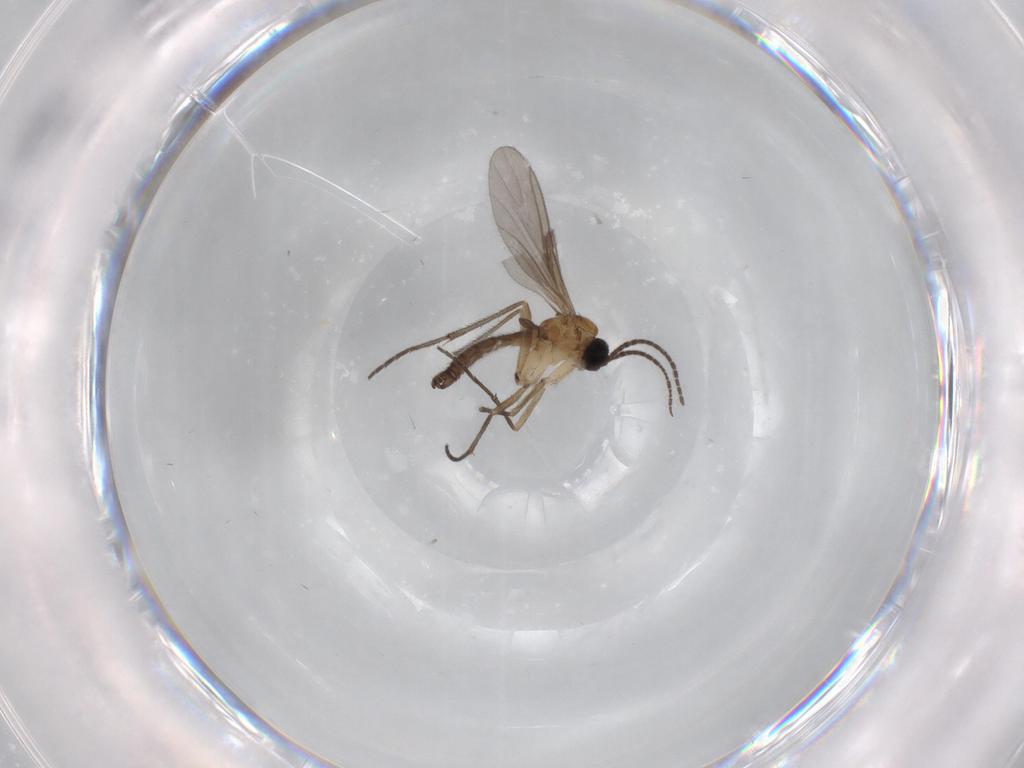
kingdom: Animalia
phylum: Arthropoda
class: Insecta
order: Diptera
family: Sciaridae
